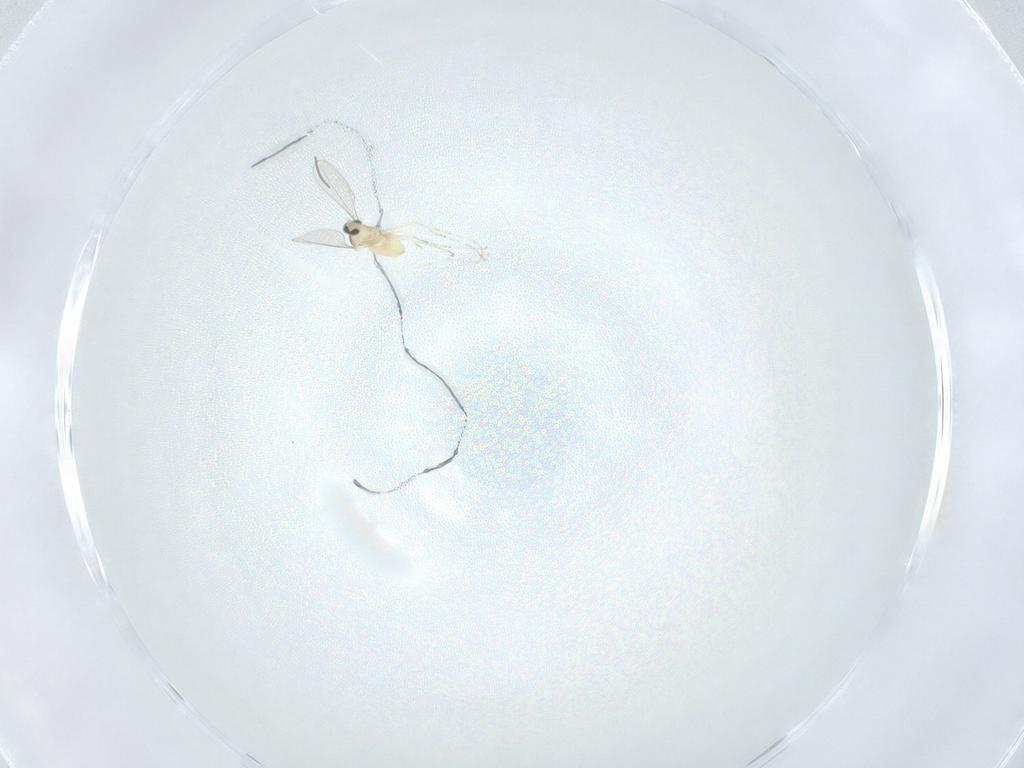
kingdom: Animalia
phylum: Arthropoda
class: Insecta
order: Diptera
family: Cecidomyiidae
